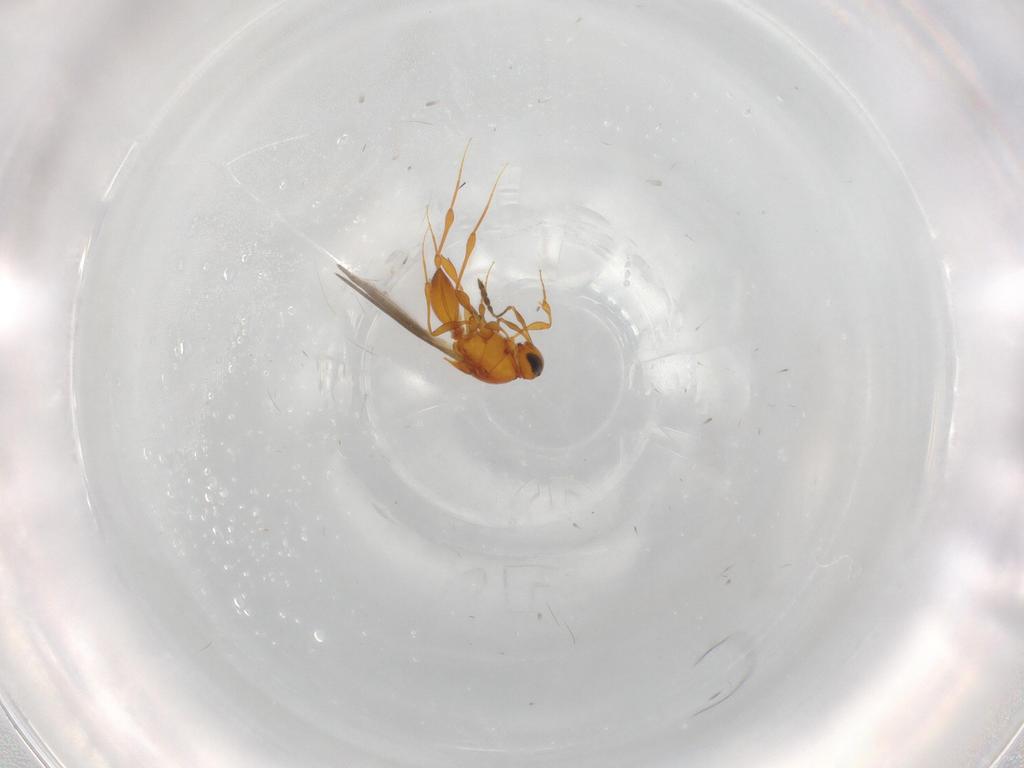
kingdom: Animalia
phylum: Arthropoda
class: Insecta
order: Hymenoptera
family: Platygastridae
